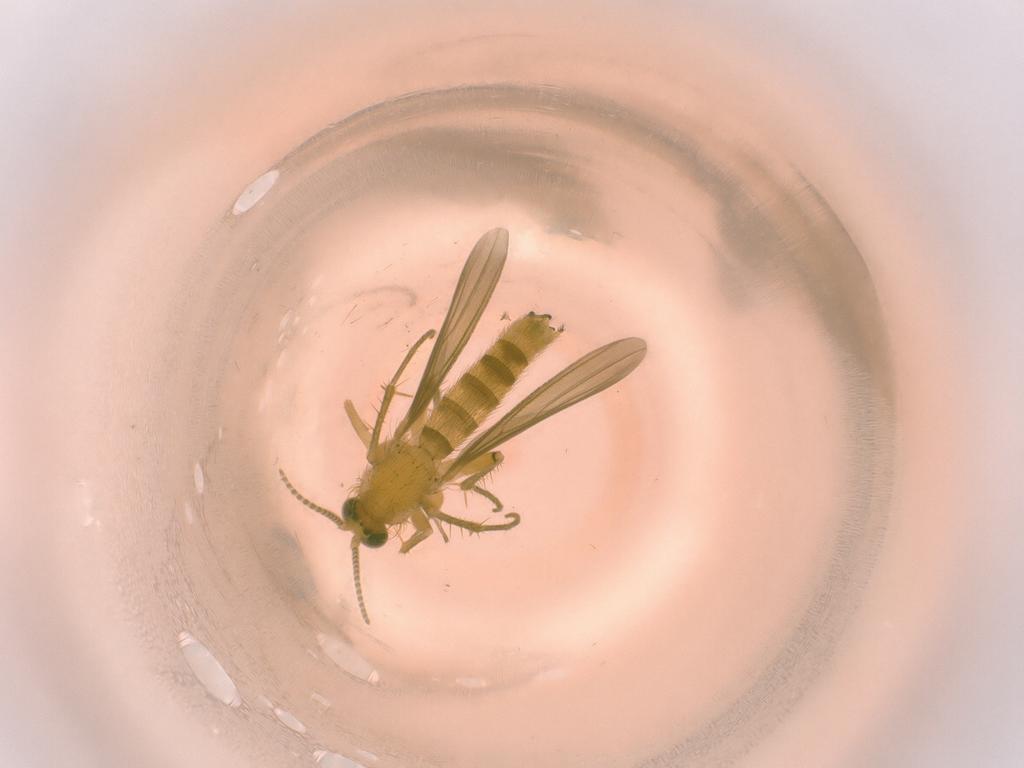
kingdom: Animalia
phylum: Arthropoda
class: Insecta
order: Diptera
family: Mycetophilidae
